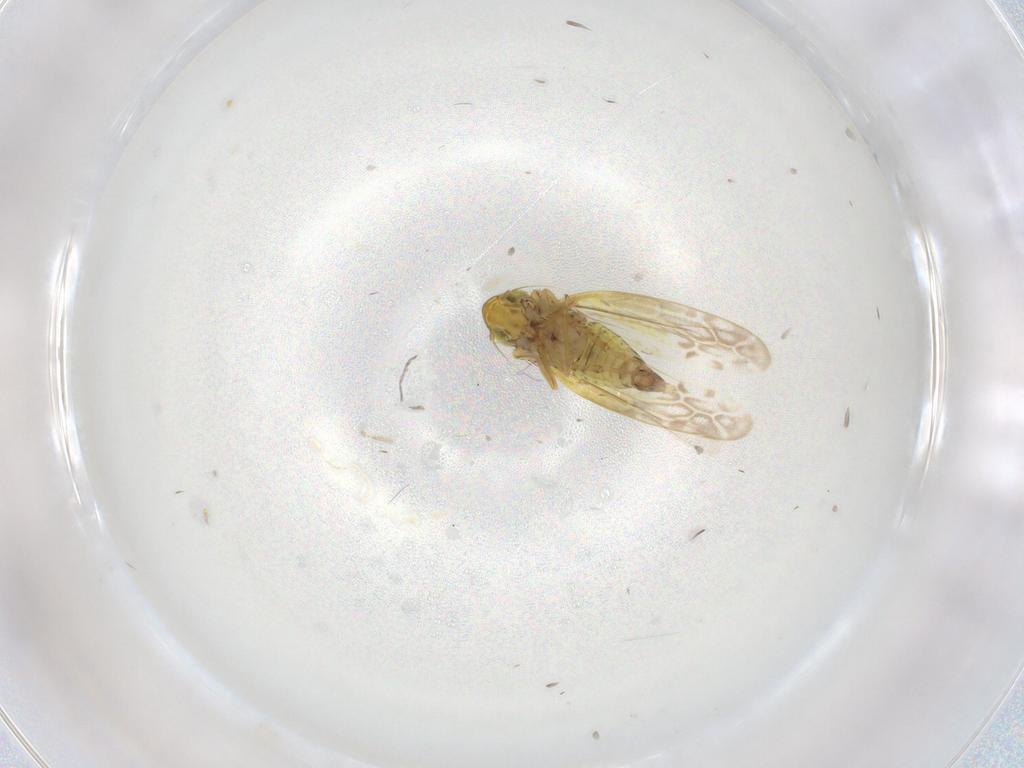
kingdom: Animalia
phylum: Arthropoda
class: Insecta
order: Hemiptera
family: Cicadellidae
